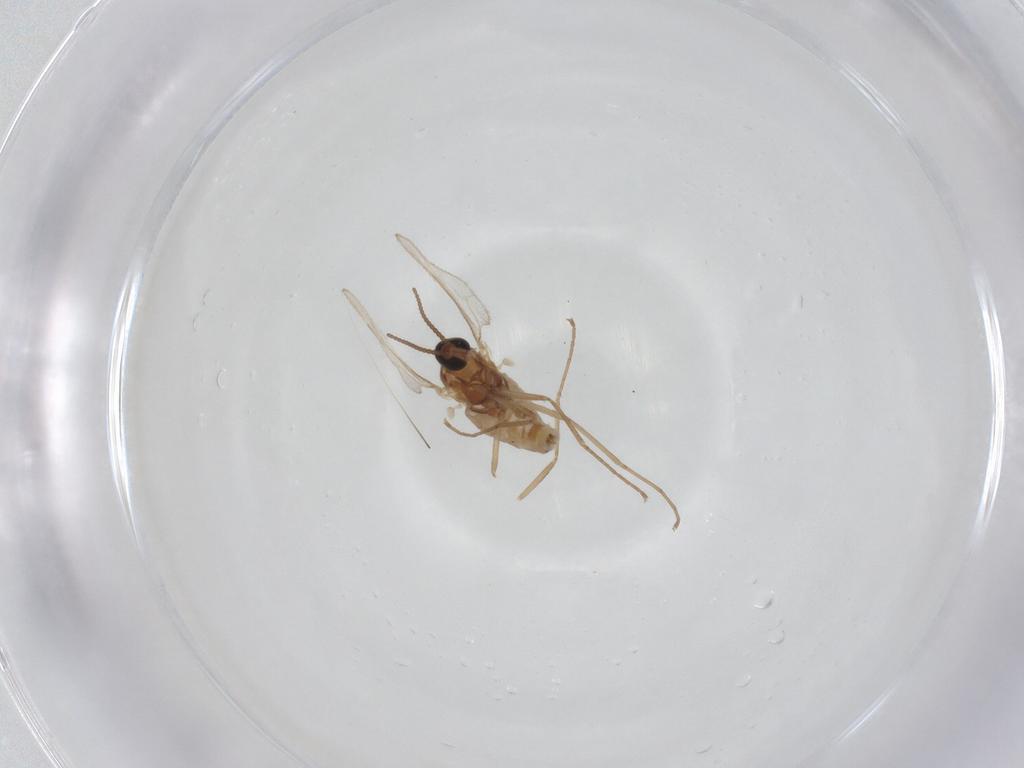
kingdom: Animalia
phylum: Arthropoda
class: Insecta
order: Diptera
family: Cecidomyiidae
